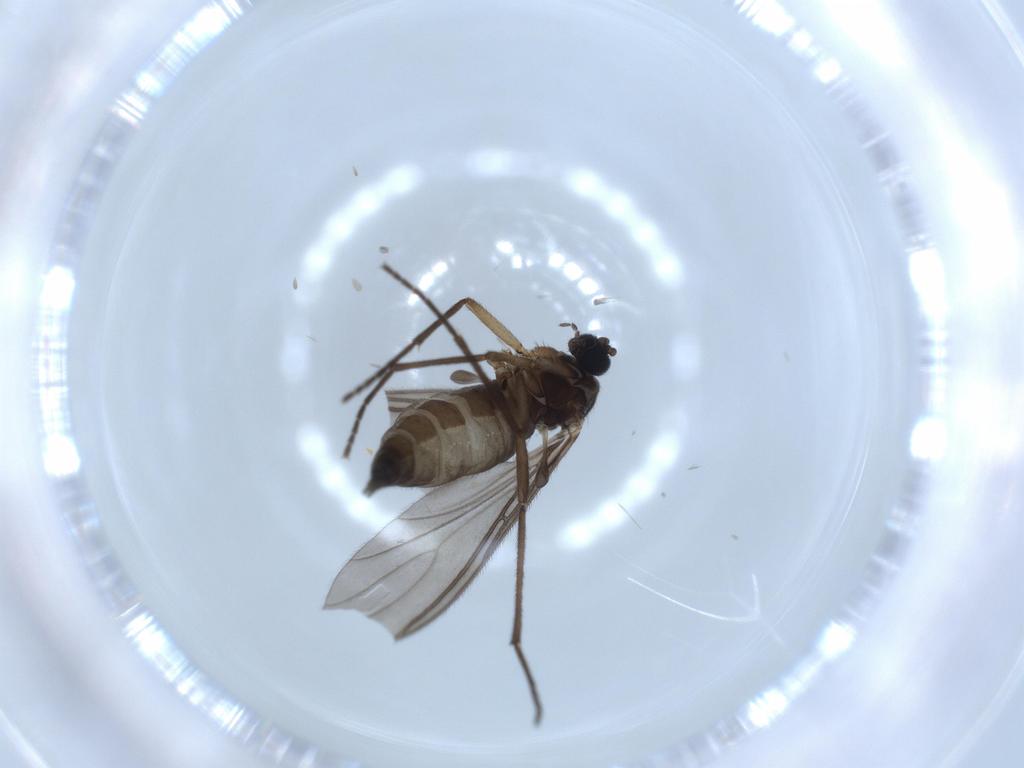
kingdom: Animalia
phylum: Arthropoda
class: Insecta
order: Diptera
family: Sciaridae
